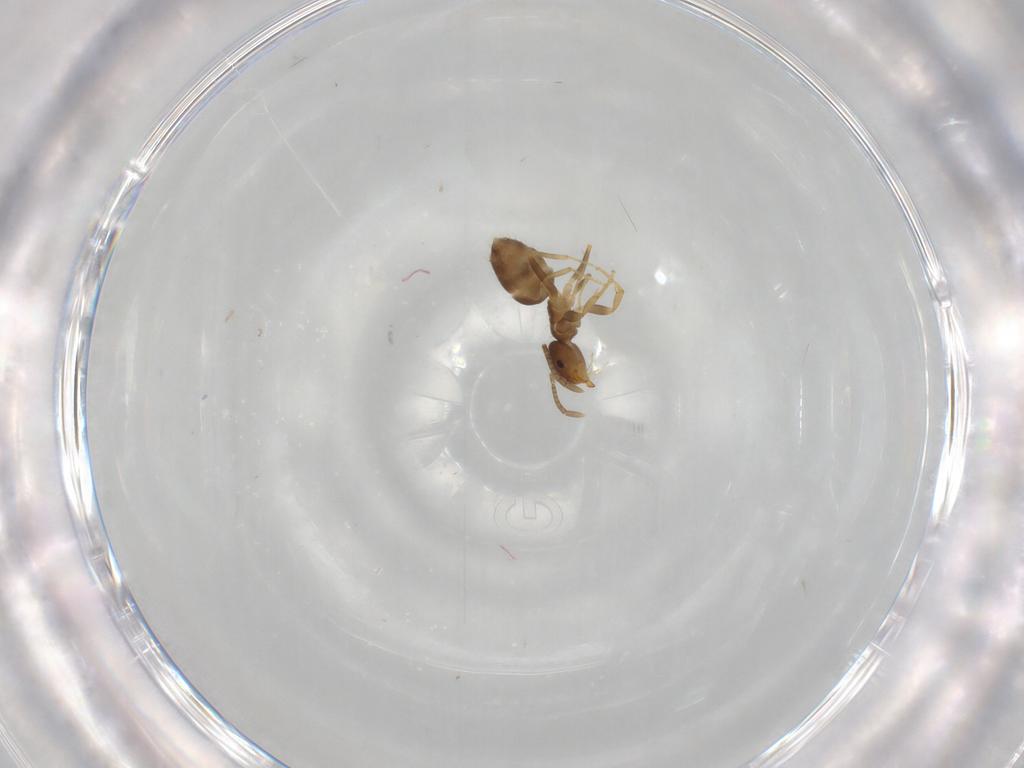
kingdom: Animalia
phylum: Arthropoda
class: Insecta
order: Hymenoptera
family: Formicidae
